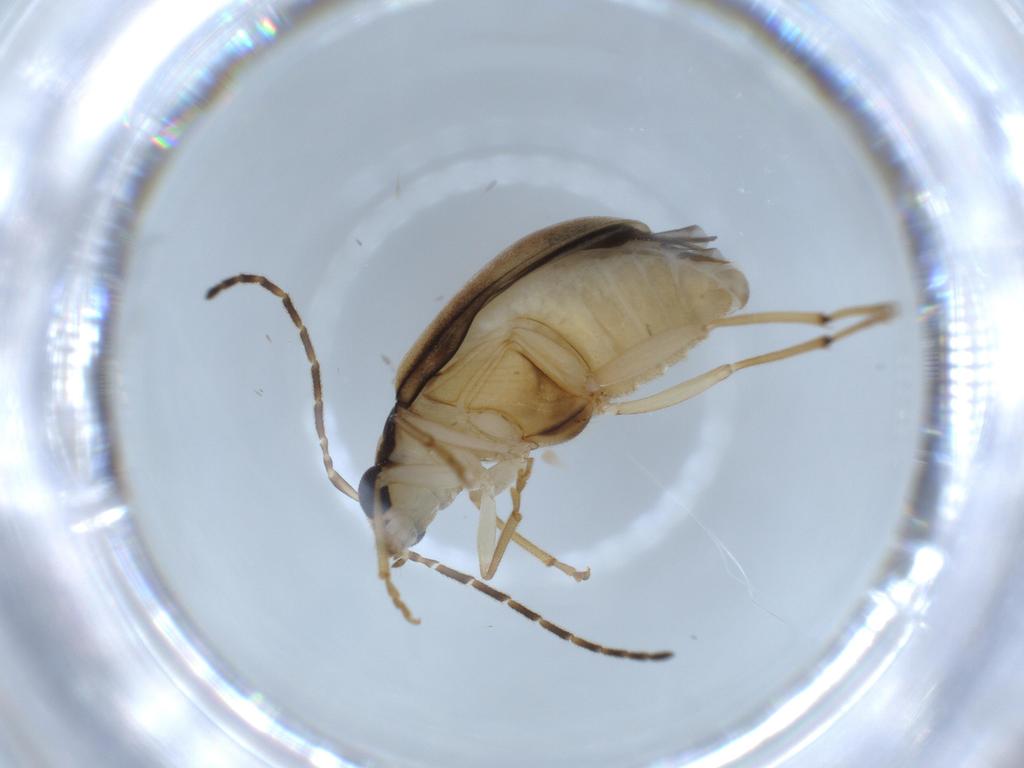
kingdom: Animalia
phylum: Arthropoda
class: Insecta
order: Coleoptera
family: Chrysomelidae
